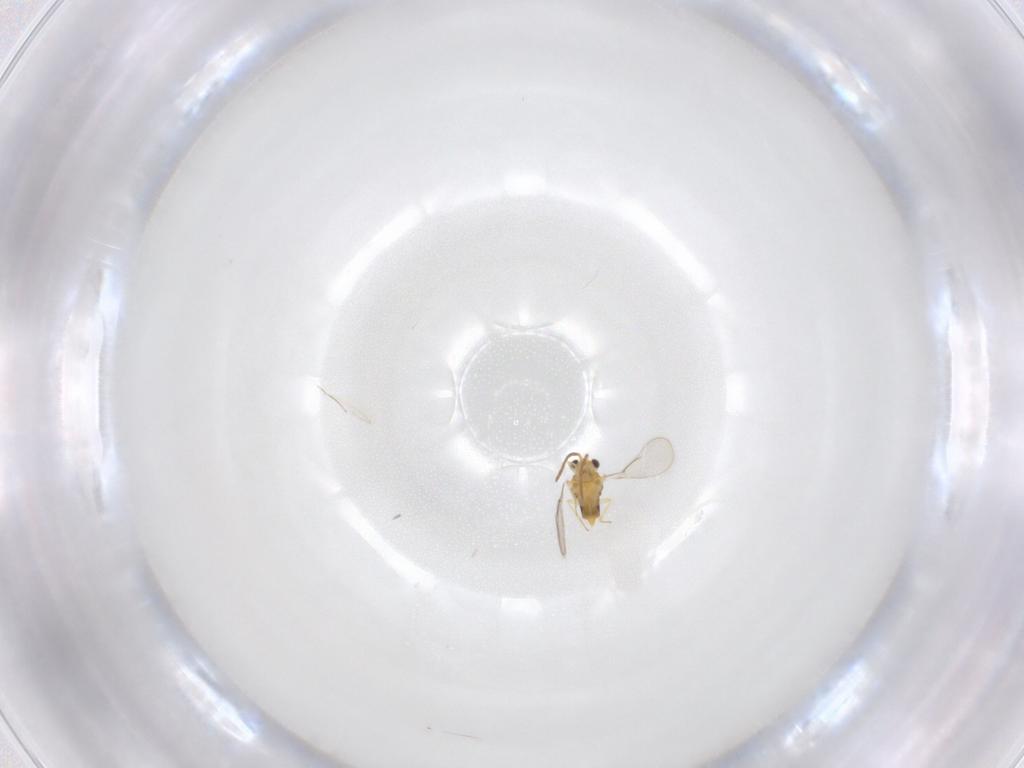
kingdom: Animalia
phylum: Arthropoda
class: Insecta
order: Hymenoptera
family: Aphelinidae
